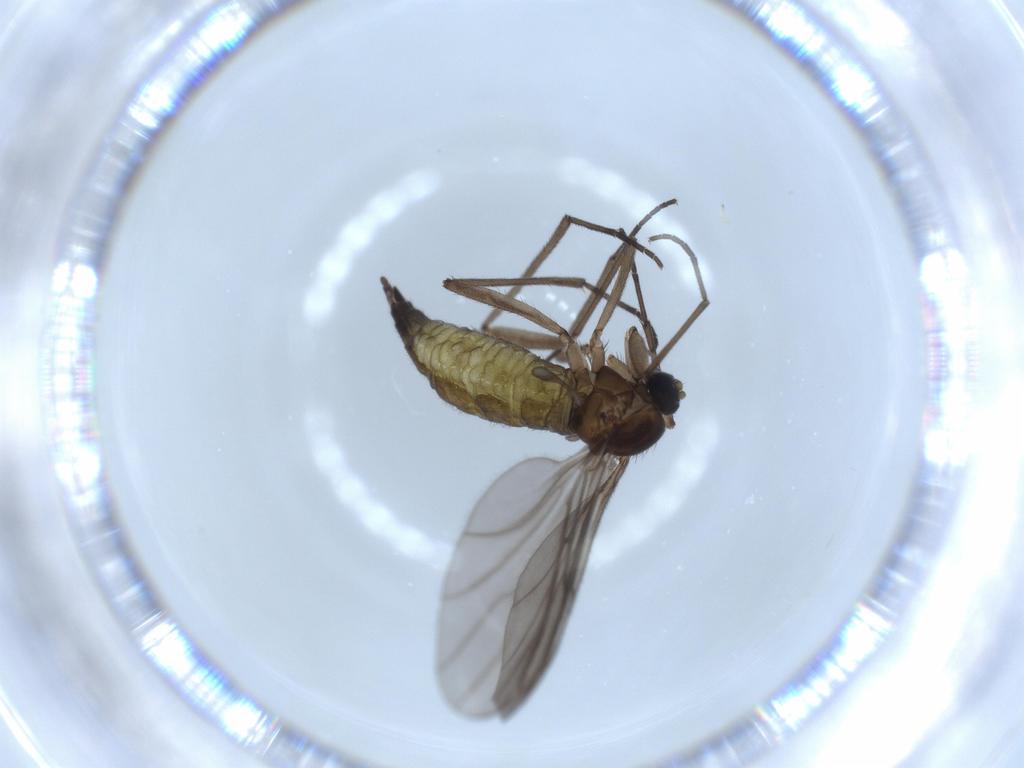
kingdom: Animalia
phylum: Arthropoda
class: Insecta
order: Diptera
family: Sciaridae
